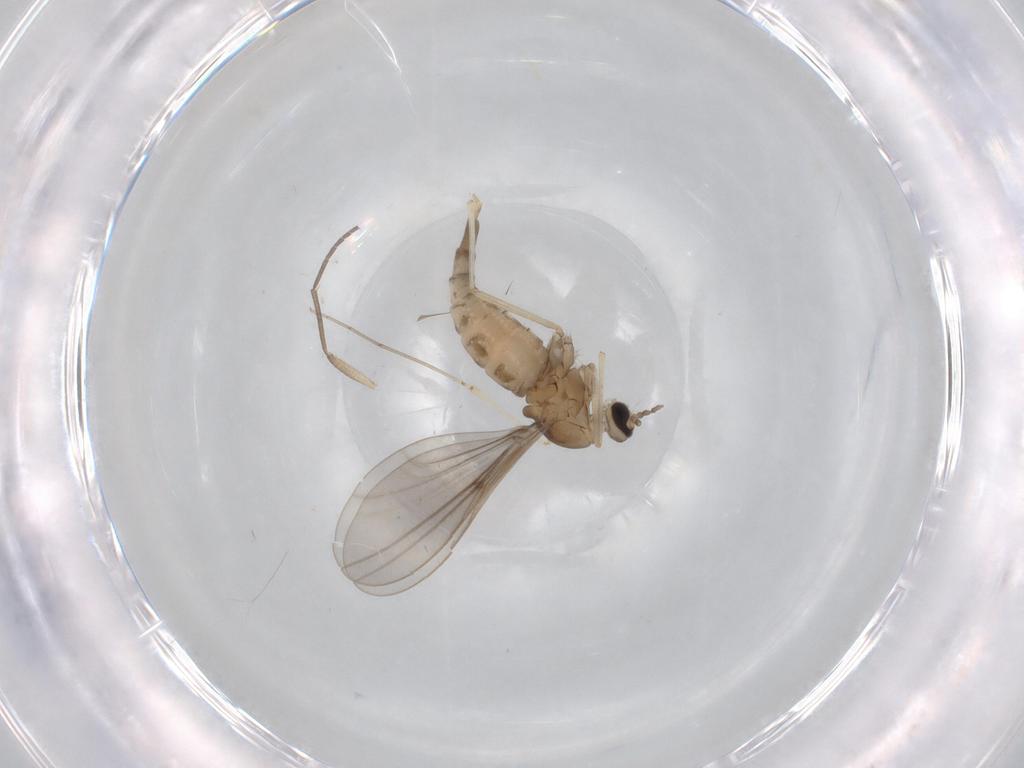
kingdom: Animalia
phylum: Arthropoda
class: Insecta
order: Diptera
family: Cecidomyiidae
